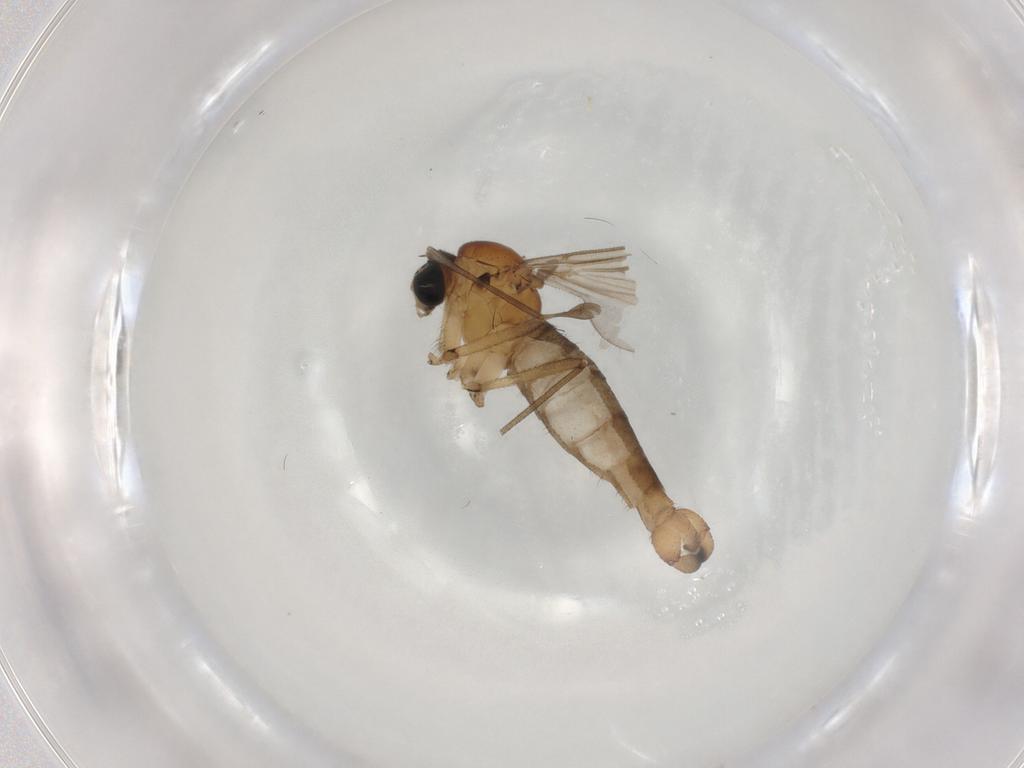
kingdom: Animalia
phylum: Arthropoda
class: Insecta
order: Diptera
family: Sciaridae
